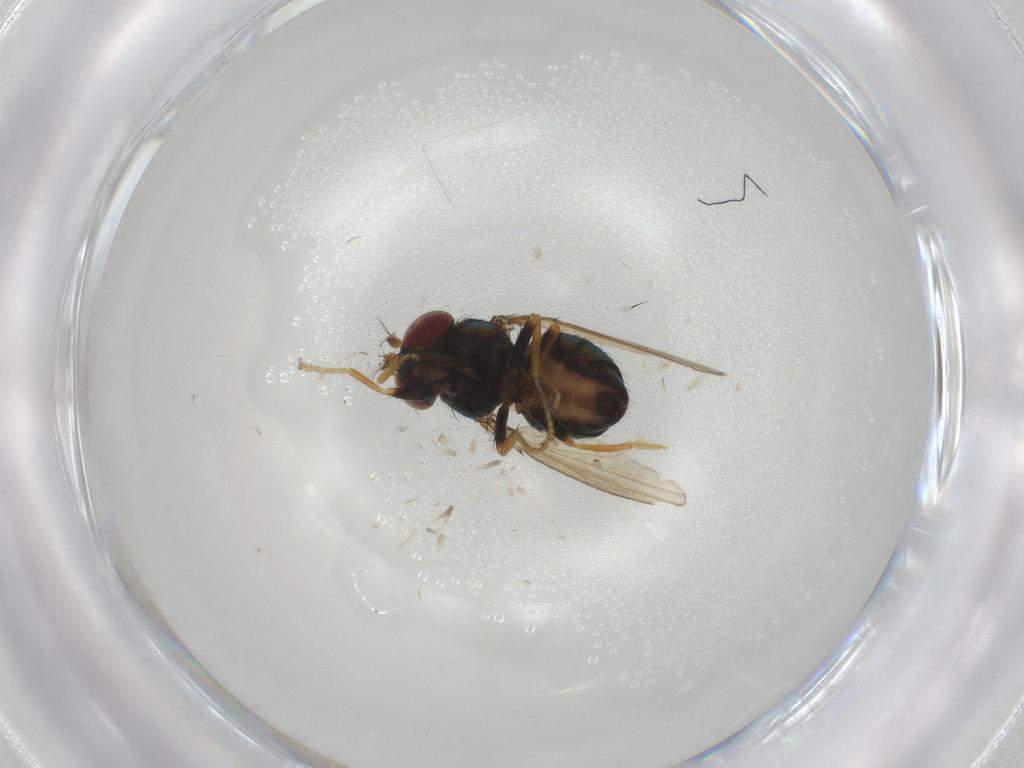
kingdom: Animalia
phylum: Arthropoda
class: Insecta
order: Diptera
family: Ephydridae
